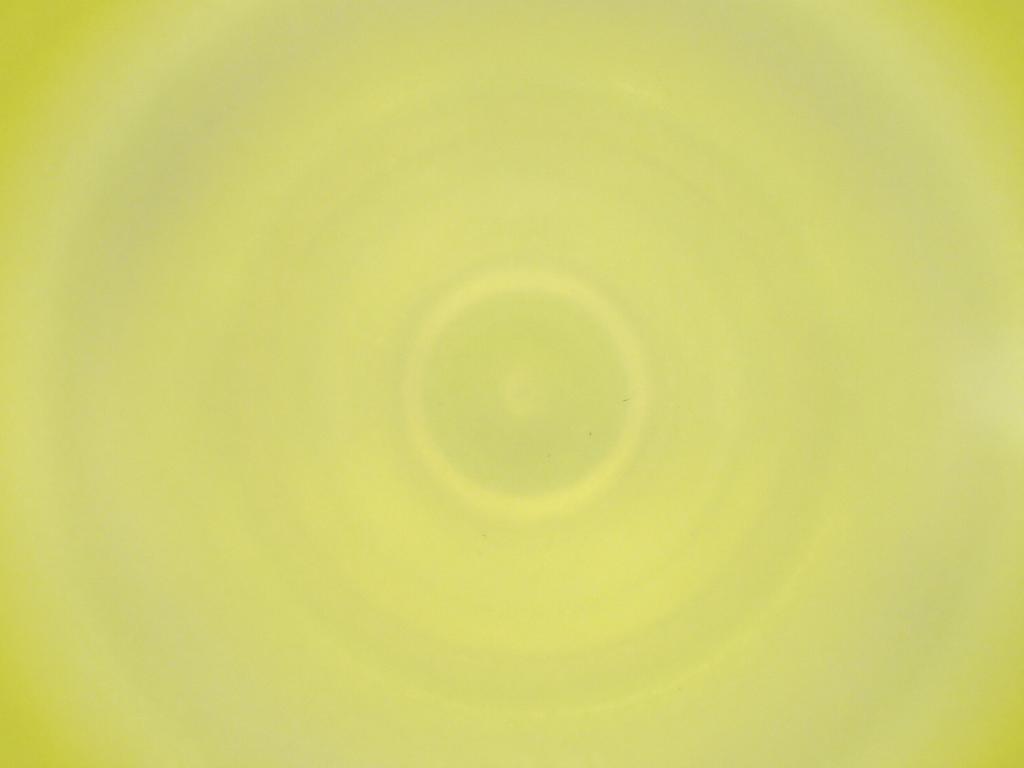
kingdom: Animalia
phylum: Arthropoda
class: Insecta
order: Diptera
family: Cecidomyiidae
